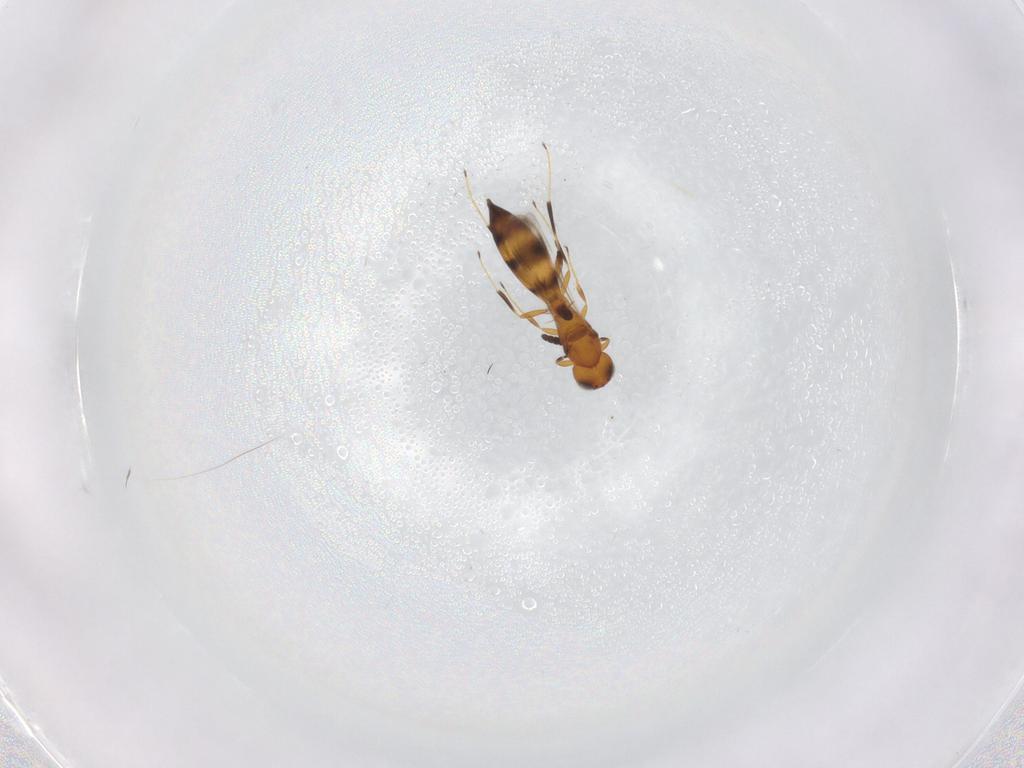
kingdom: Animalia
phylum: Arthropoda
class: Insecta
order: Hymenoptera
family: Scelionidae
